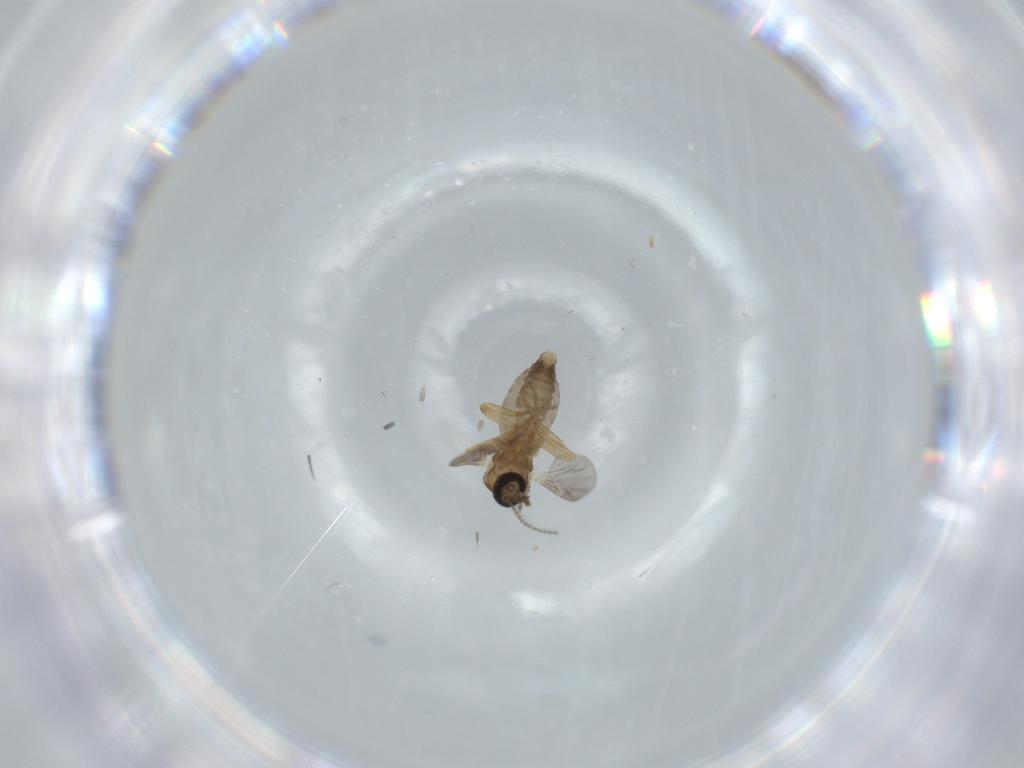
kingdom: Animalia
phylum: Arthropoda
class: Insecta
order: Diptera
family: Ceratopogonidae
